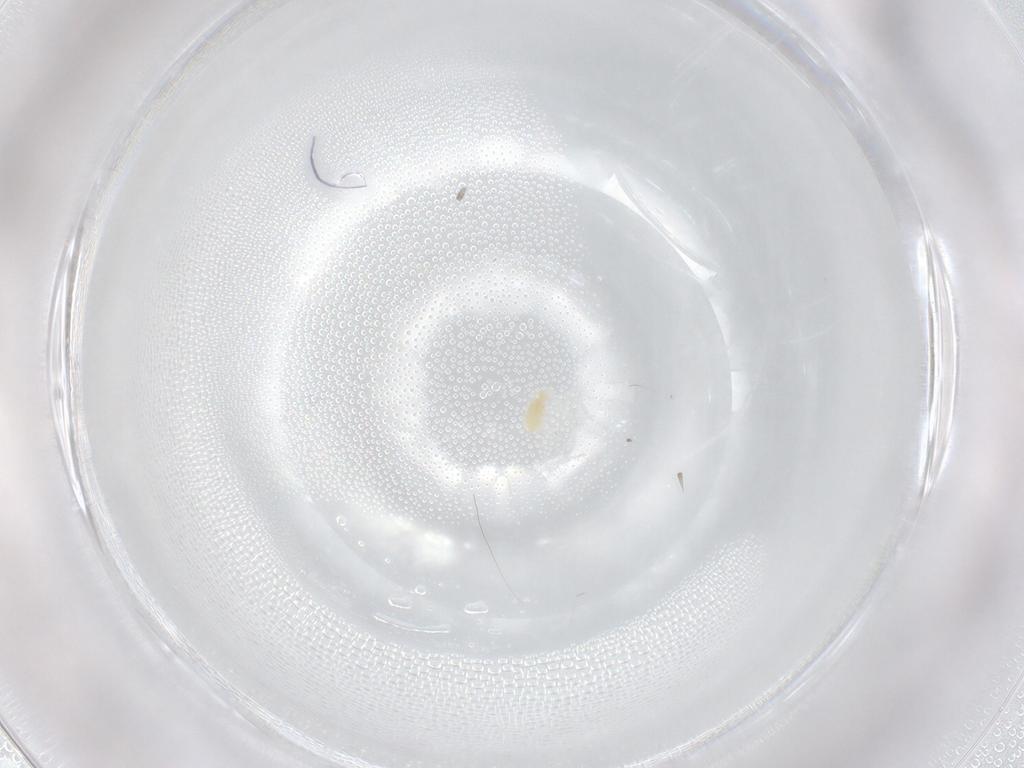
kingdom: Animalia
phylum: Arthropoda
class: Arachnida
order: Trombidiformes
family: Eupodidae
